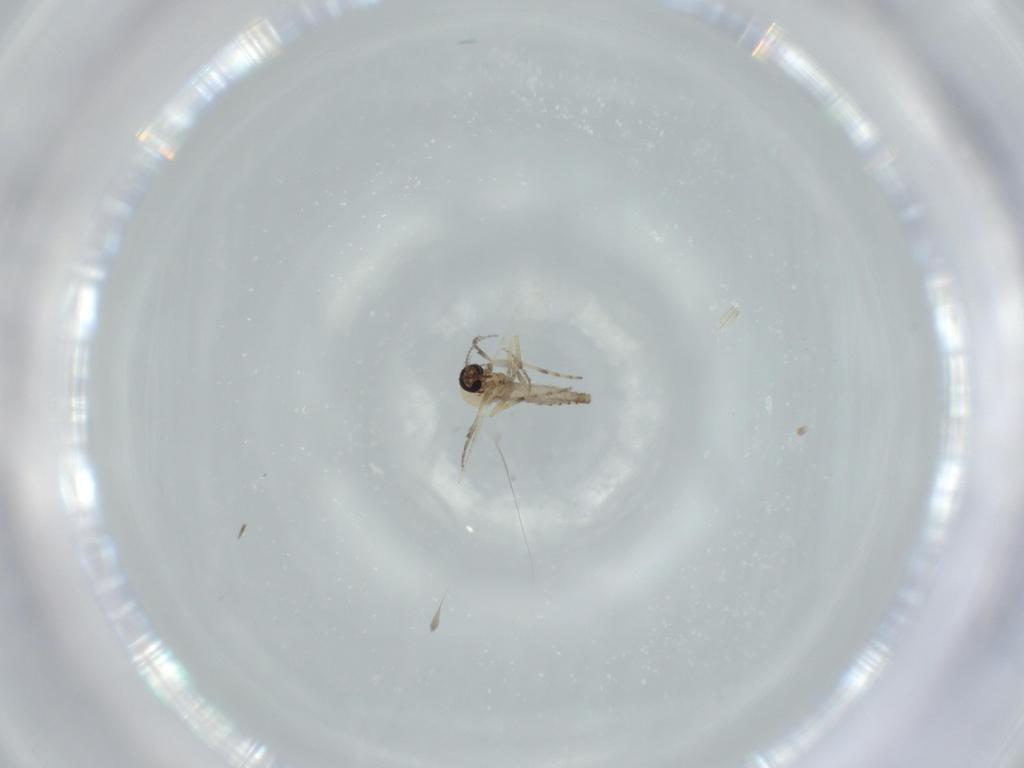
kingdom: Animalia
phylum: Arthropoda
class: Insecta
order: Diptera
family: Ceratopogonidae
